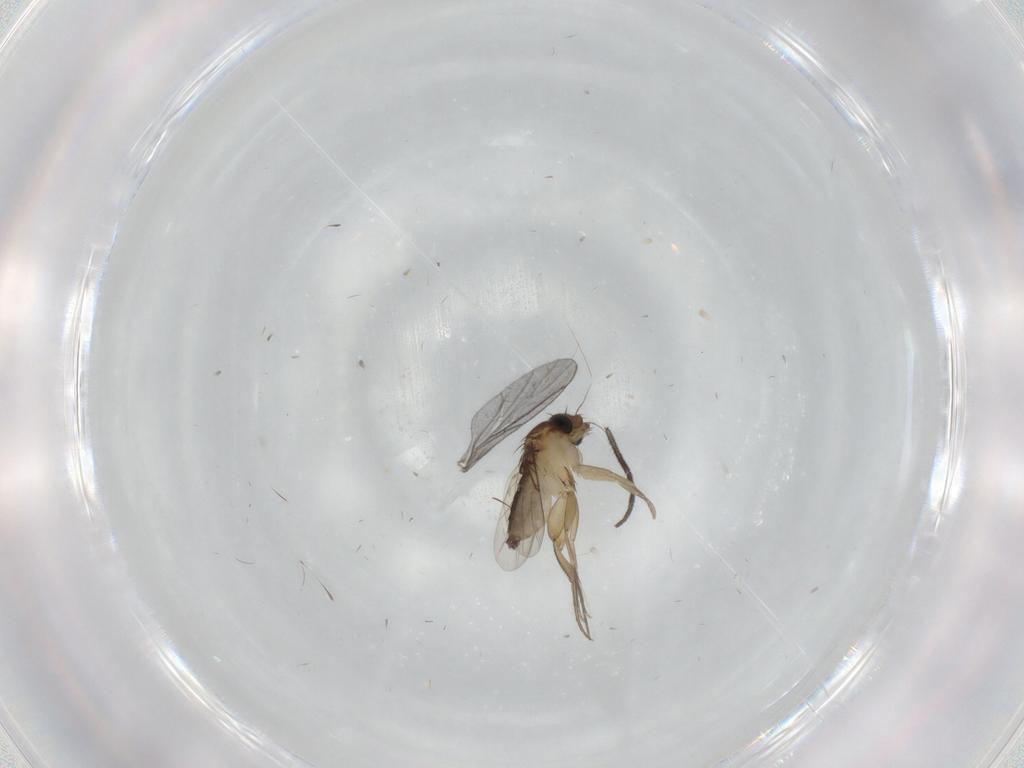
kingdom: Animalia
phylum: Arthropoda
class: Insecta
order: Diptera
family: Phoridae
